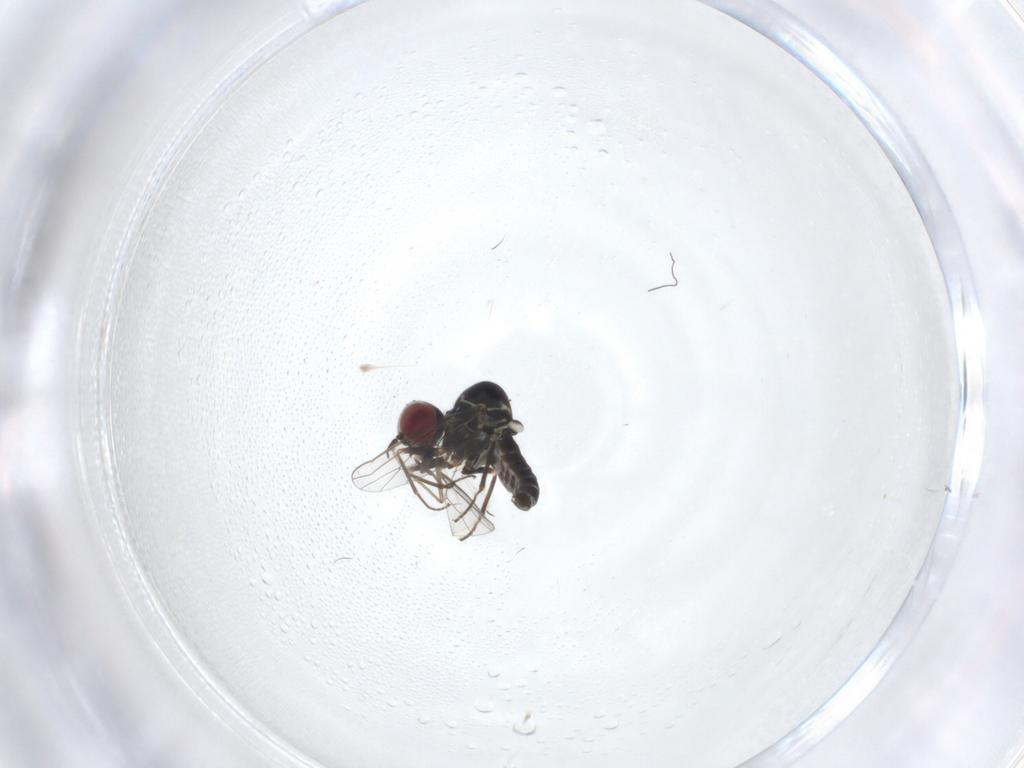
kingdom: Animalia
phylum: Arthropoda
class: Insecta
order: Diptera
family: Mythicomyiidae
